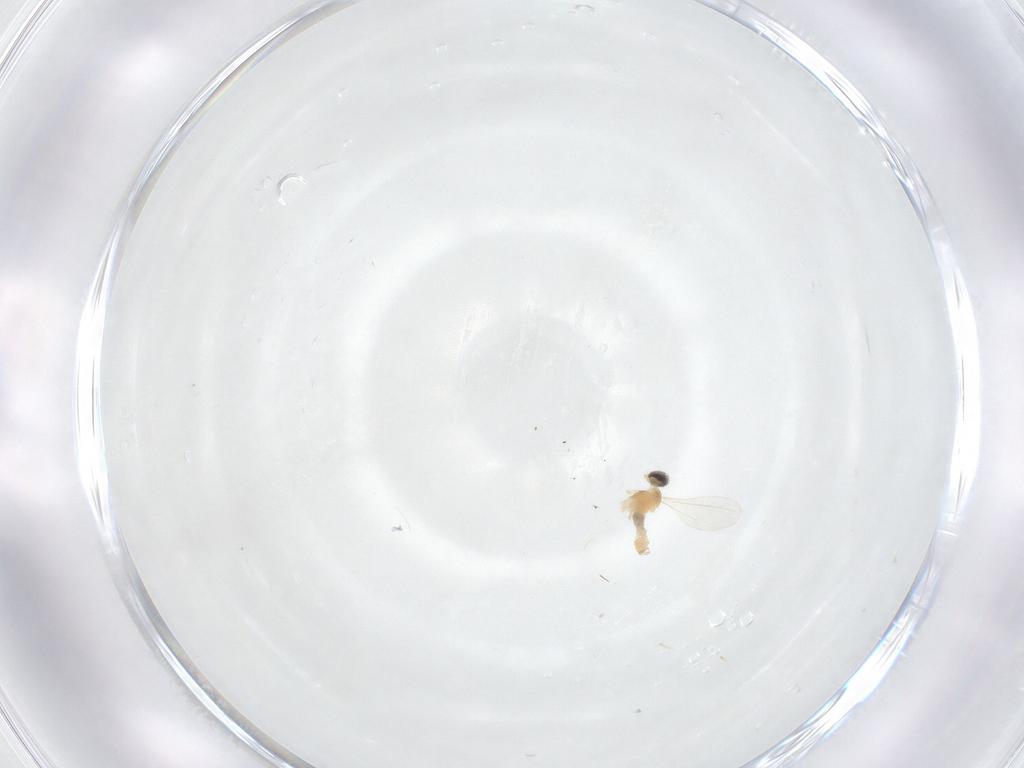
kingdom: Animalia
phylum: Arthropoda
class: Insecta
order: Diptera
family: Cecidomyiidae
